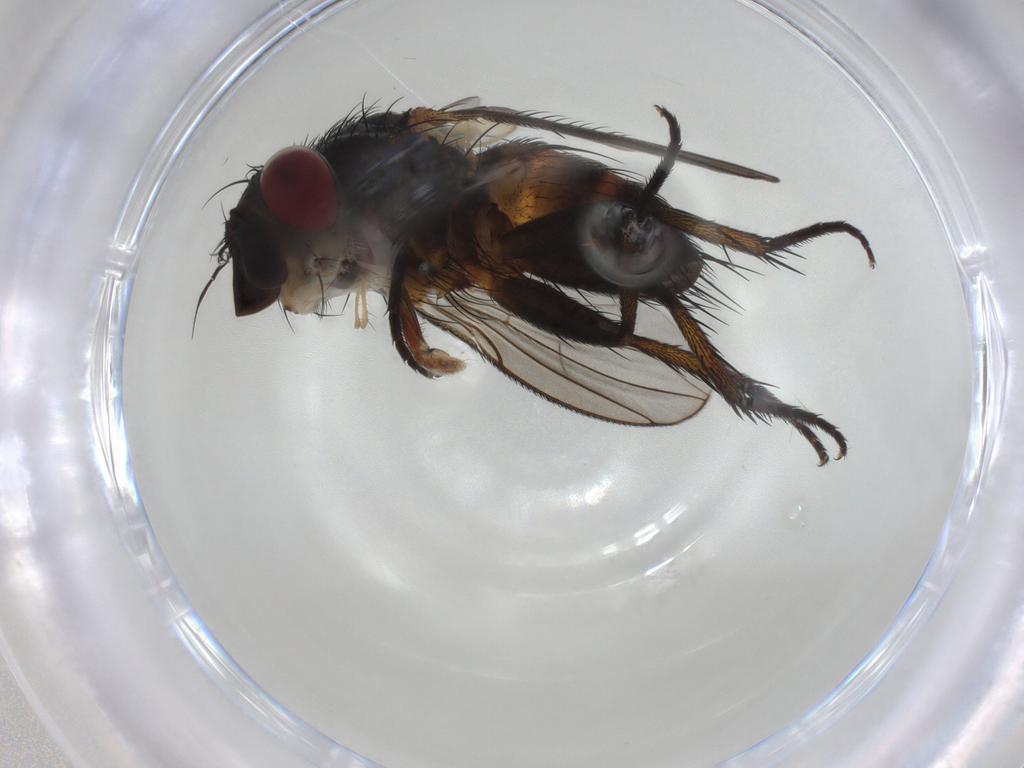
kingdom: Animalia
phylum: Arthropoda
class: Insecta
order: Diptera
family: Tachinidae
